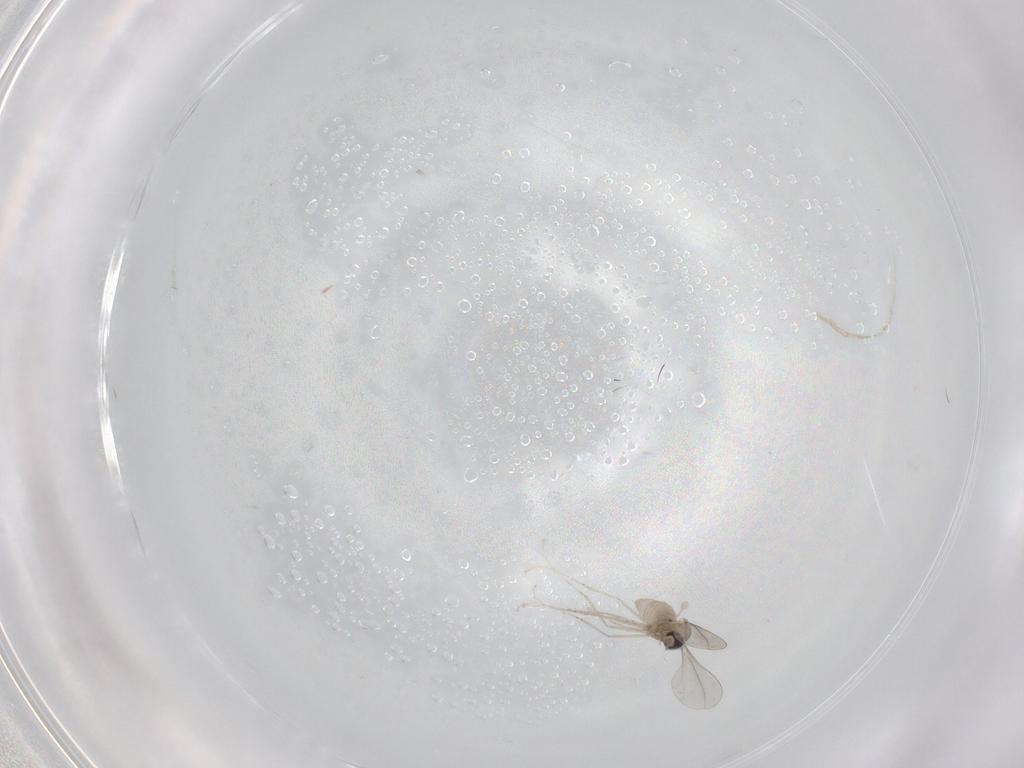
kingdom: Animalia
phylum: Arthropoda
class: Insecta
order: Diptera
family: Cecidomyiidae
